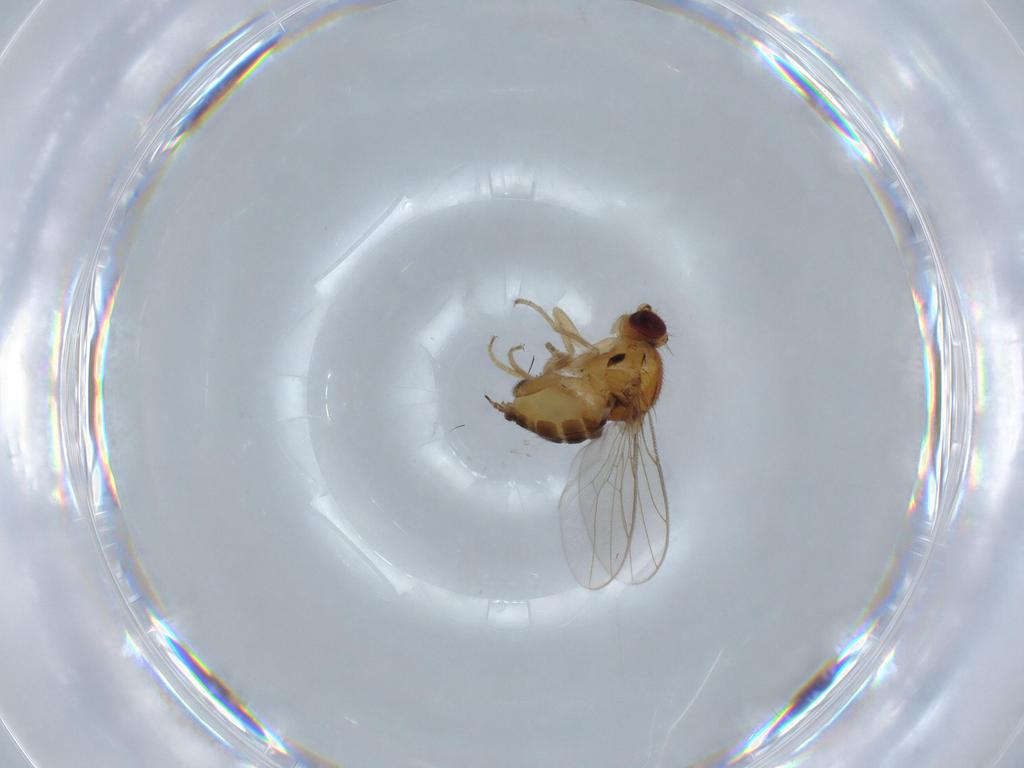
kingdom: Animalia
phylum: Arthropoda
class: Insecta
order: Diptera
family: Chloropidae
